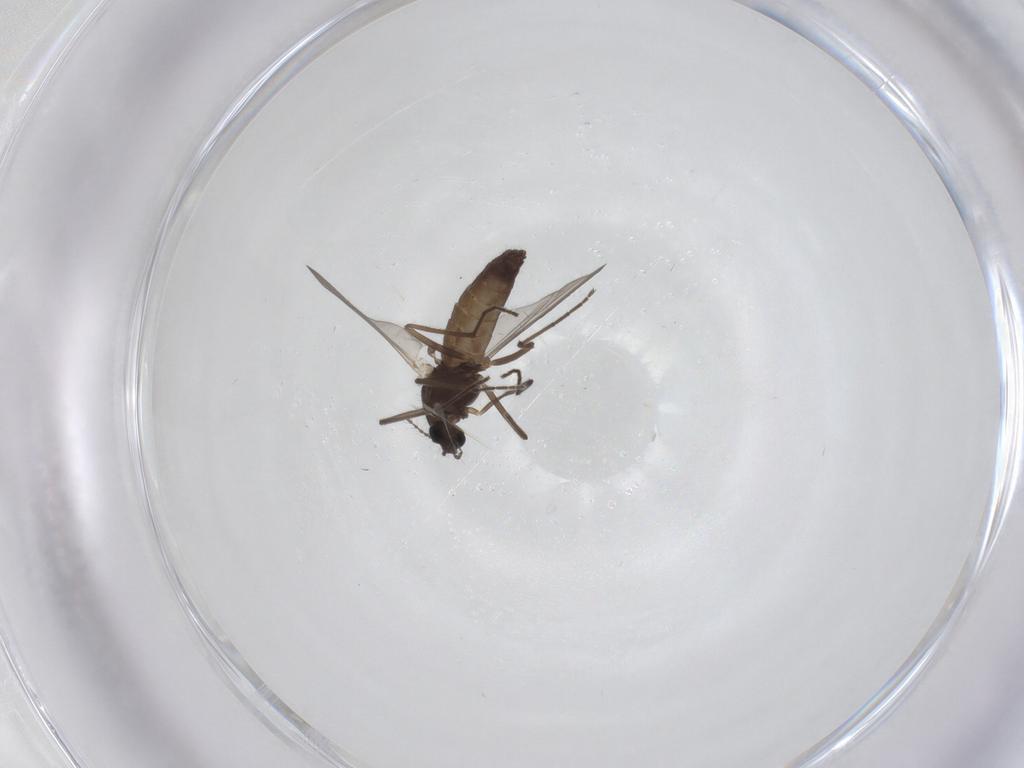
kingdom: Animalia
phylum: Arthropoda
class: Insecta
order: Diptera
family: Chironomidae
